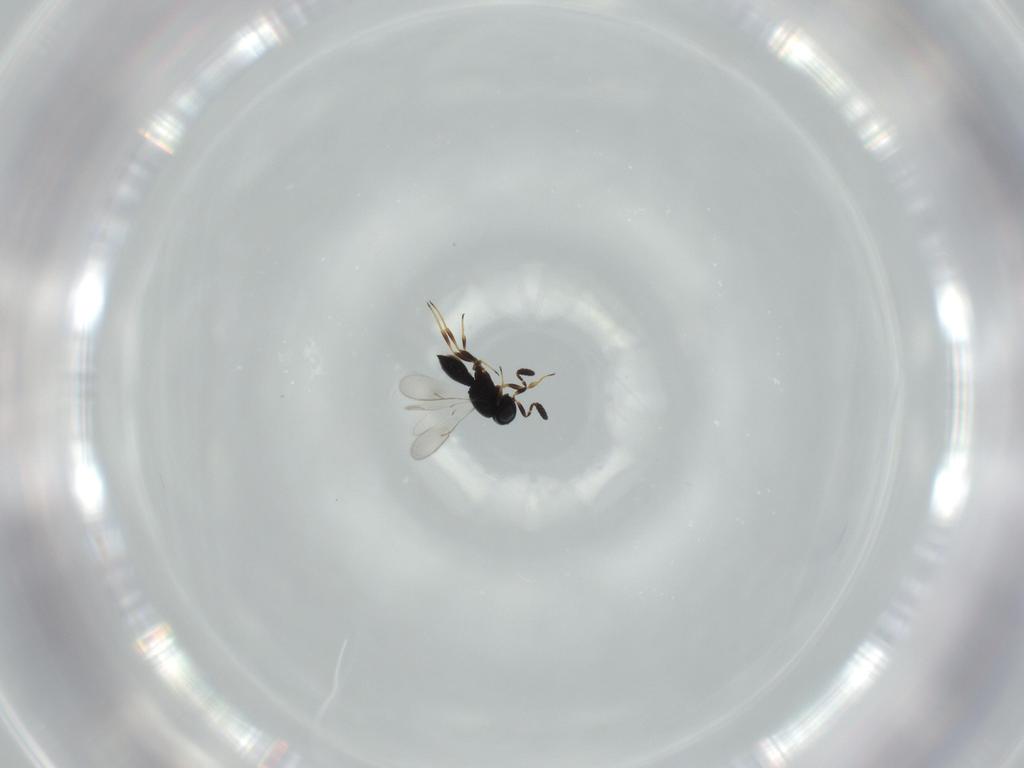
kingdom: Animalia
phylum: Arthropoda
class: Insecta
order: Hymenoptera
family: Scelionidae
